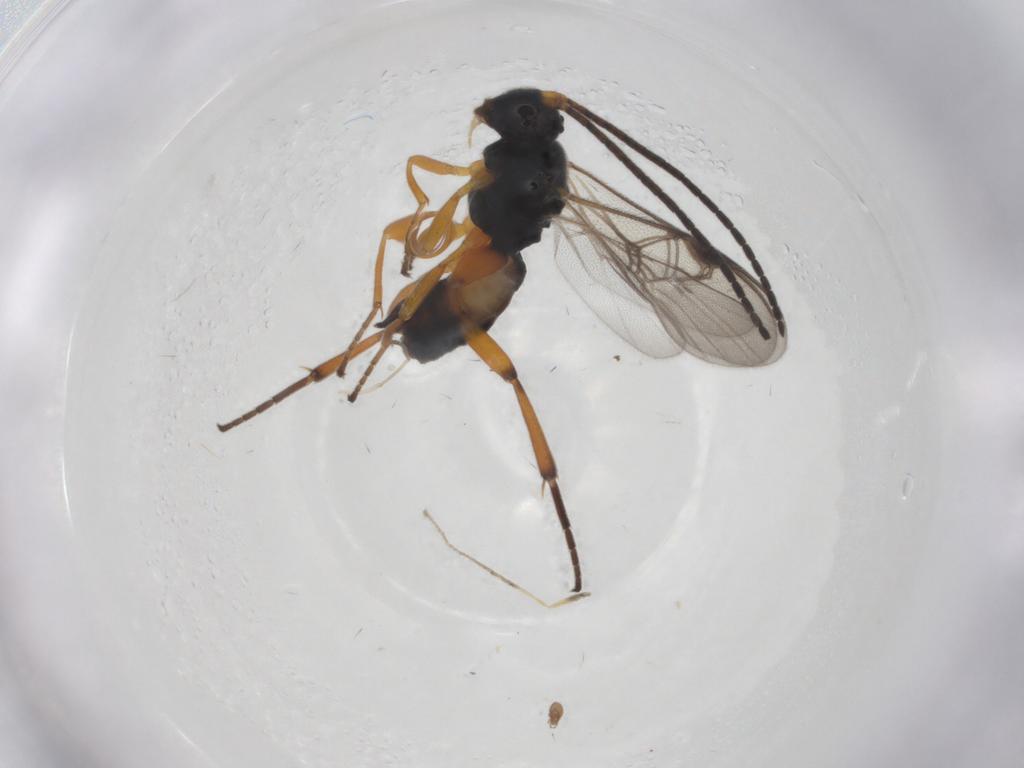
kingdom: Animalia
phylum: Arthropoda
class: Insecta
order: Hymenoptera
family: Braconidae
